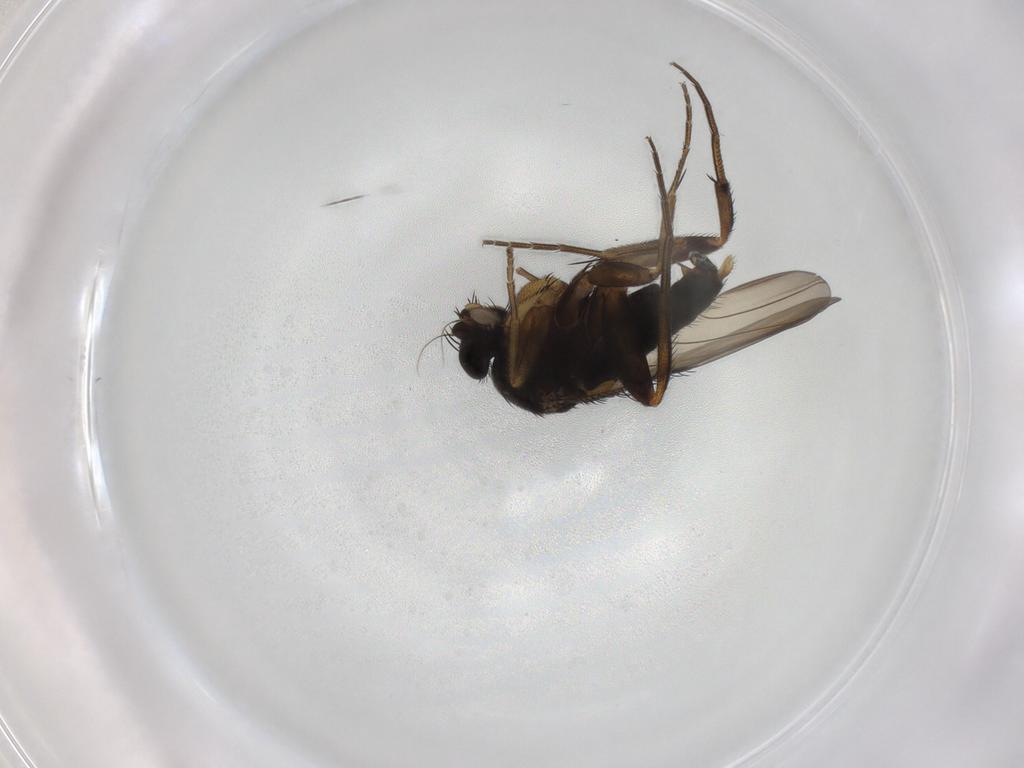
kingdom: Animalia
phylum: Arthropoda
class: Insecta
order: Diptera
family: Phoridae
